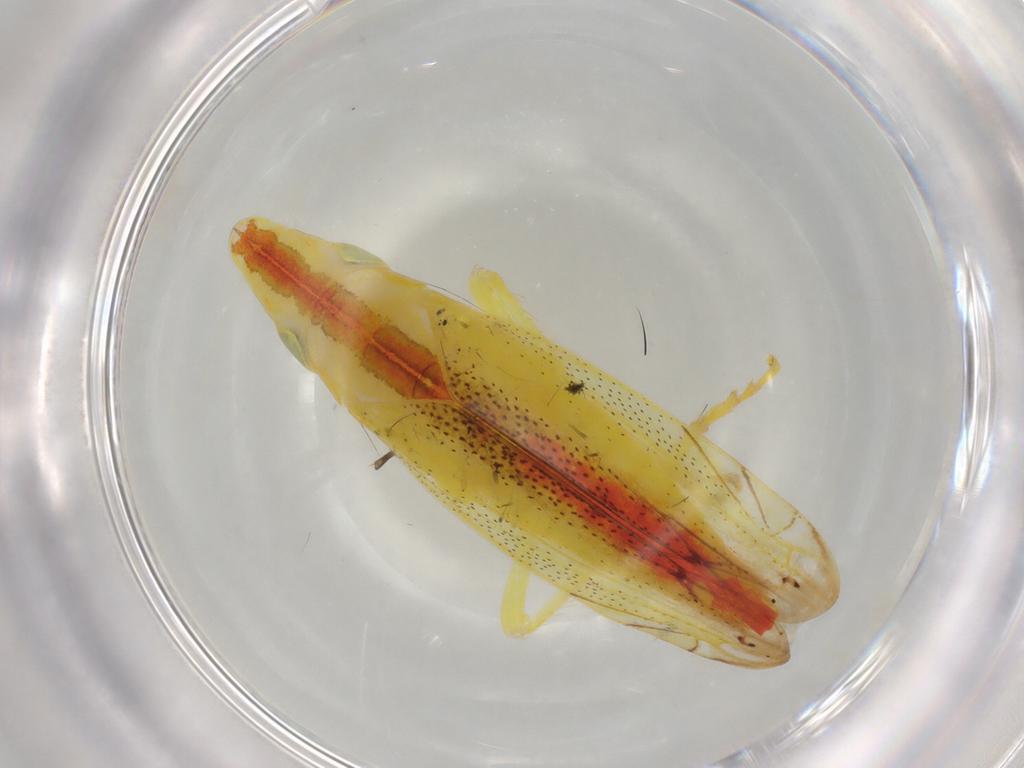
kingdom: Animalia
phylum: Arthropoda
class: Insecta
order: Hemiptera
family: Cicadellidae
